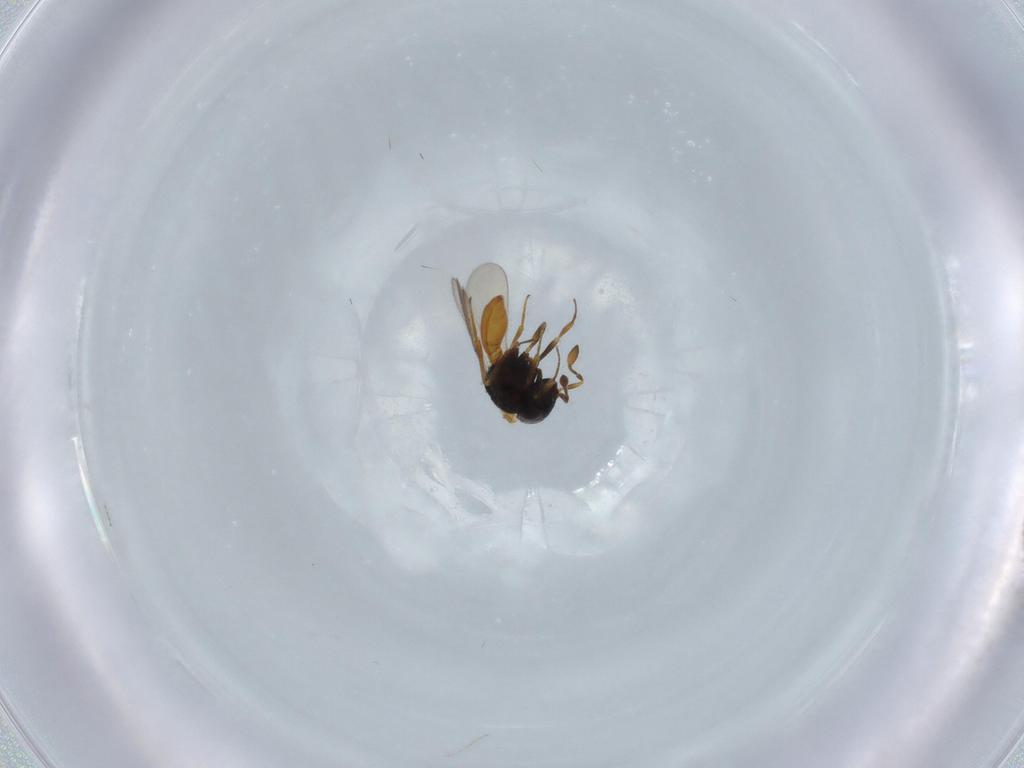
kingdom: Animalia
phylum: Arthropoda
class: Insecta
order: Hymenoptera
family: Scelionidae
